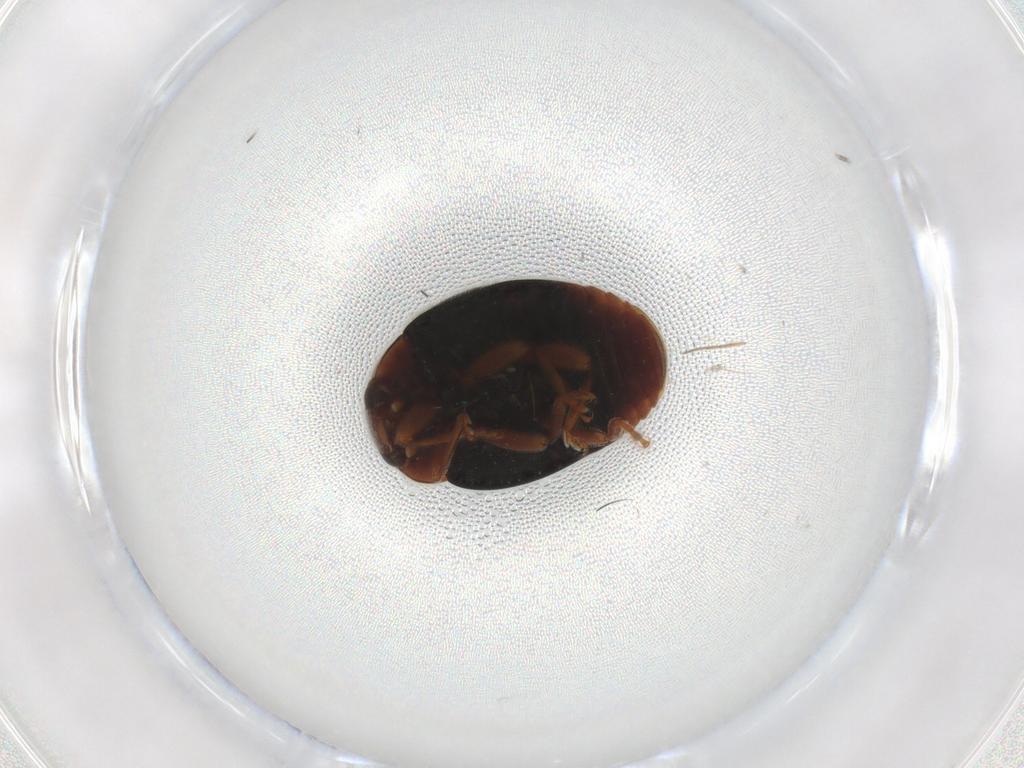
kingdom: Animalia
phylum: Arthropoda
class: Insecta
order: Coleoptera
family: Coccinellidae
